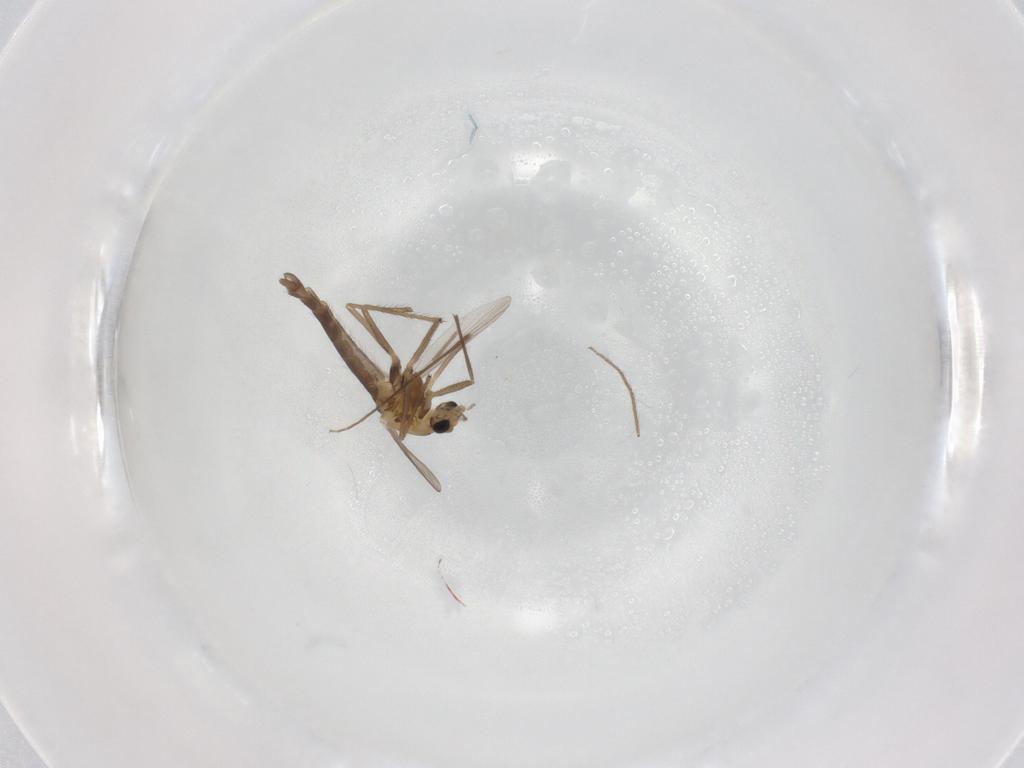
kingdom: Animalia
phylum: Arthropoda
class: Insecta
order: Diptera
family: Chironomidae
